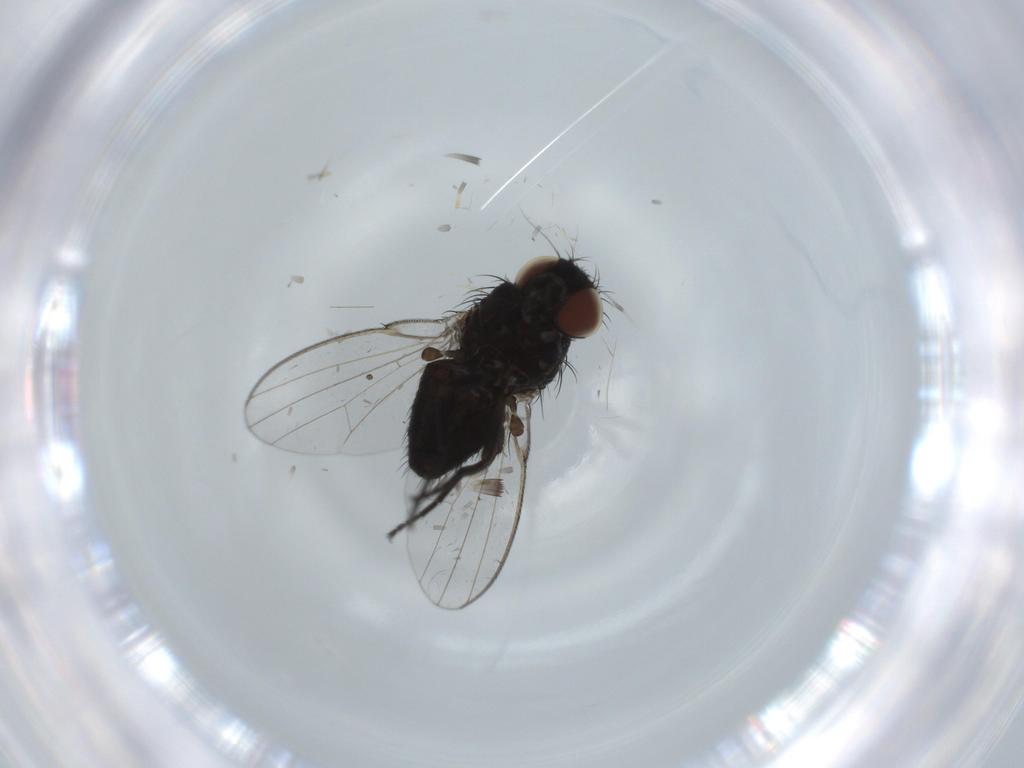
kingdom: Animalia
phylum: Arthropoda
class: Insecta
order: Diptera
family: Milichiidae
